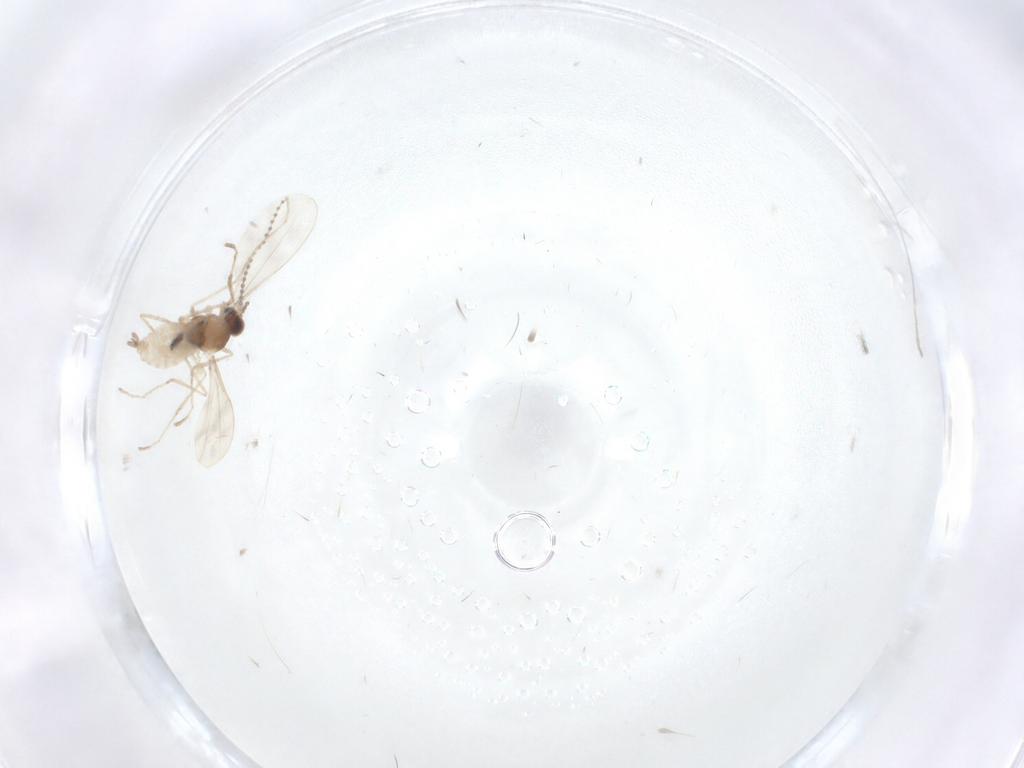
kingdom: Animalia
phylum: Arthropoda
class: Insecta
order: Diptera
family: Cecidomyiidae
